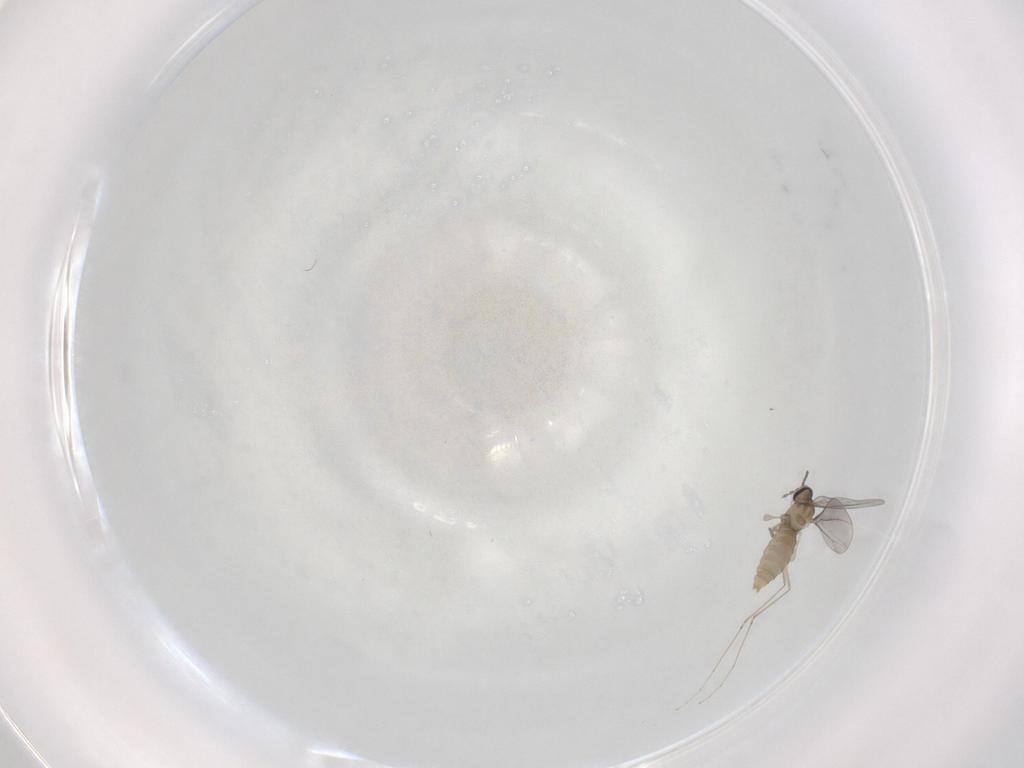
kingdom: Animalia
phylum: Arthropoda
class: Insecta
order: Diptera
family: Cecidomyiidae
